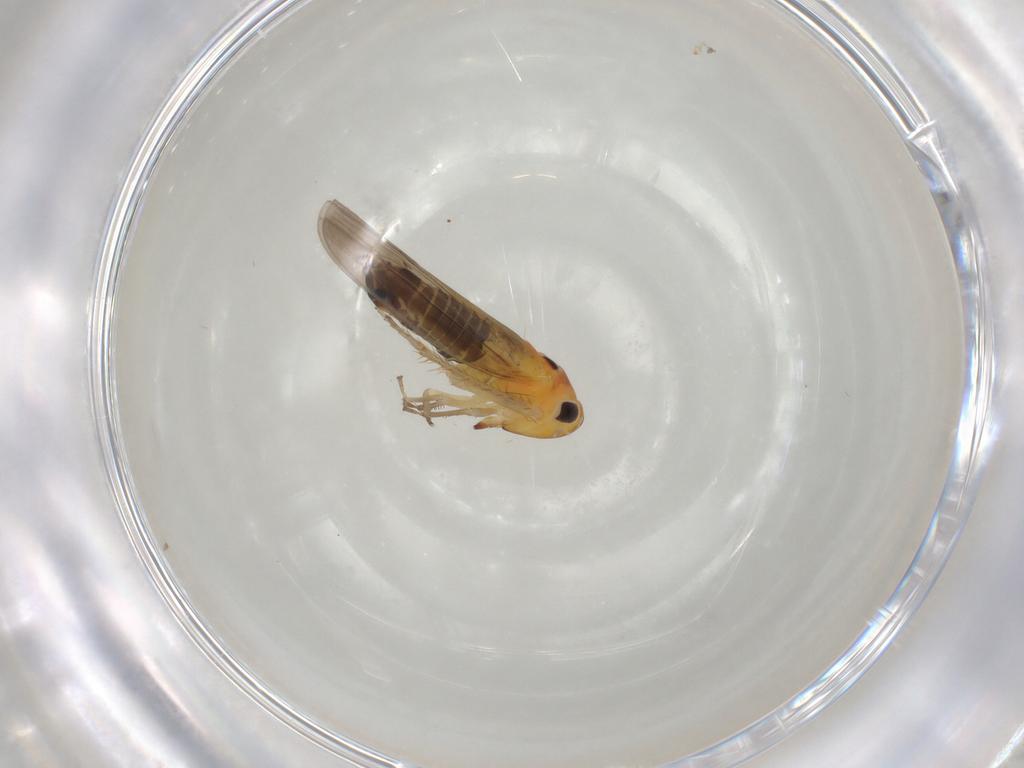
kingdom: Animalia
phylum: Arthropoda
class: Insecta
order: Hemiptera
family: Cicadellidae
